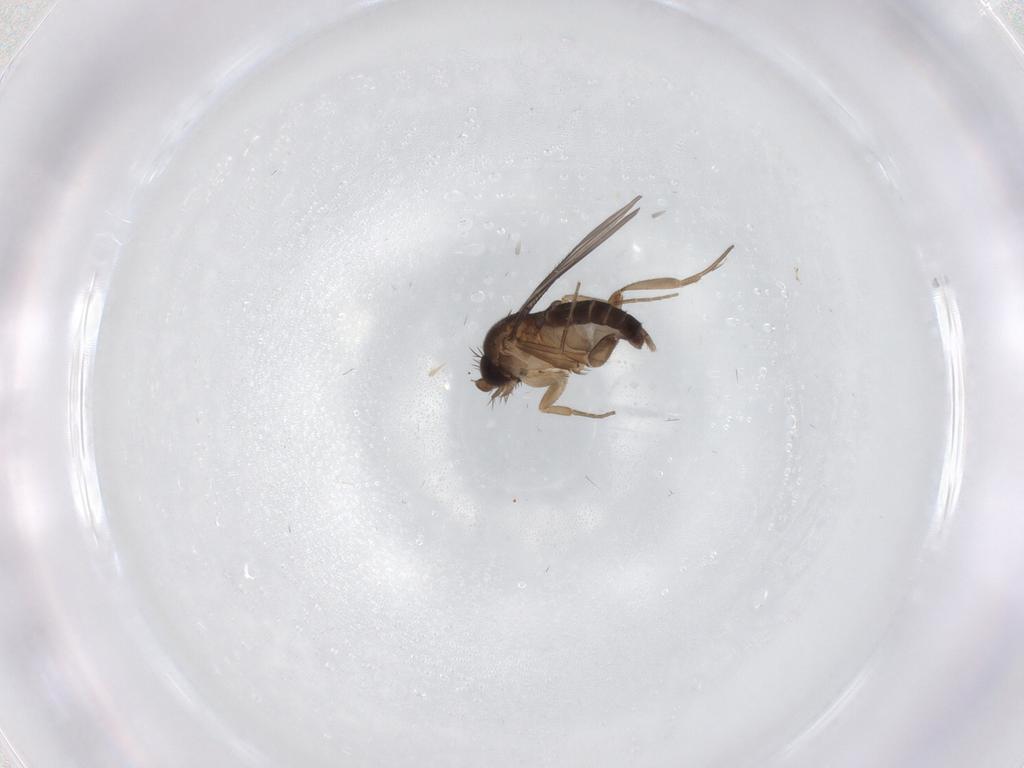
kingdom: Animalia
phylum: Arthropoda
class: Insecta
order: Diptera
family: Phoridae
